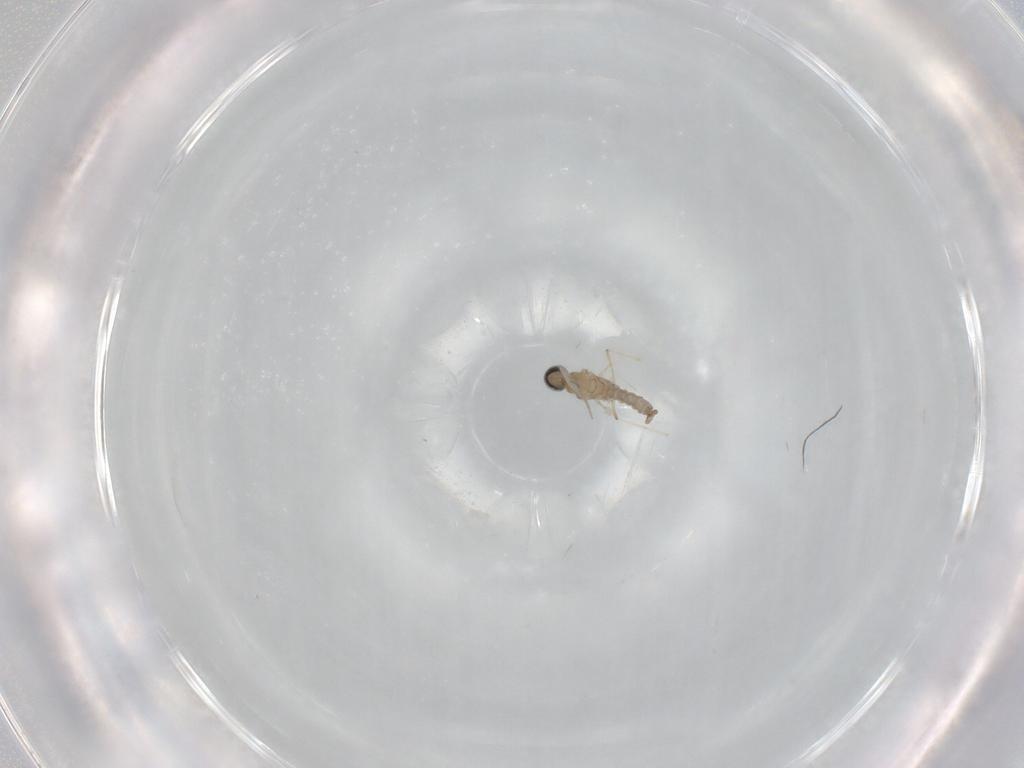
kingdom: Animalia
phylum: Arthropoda
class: Insecta
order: Diptera
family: Cecidomyiidae
